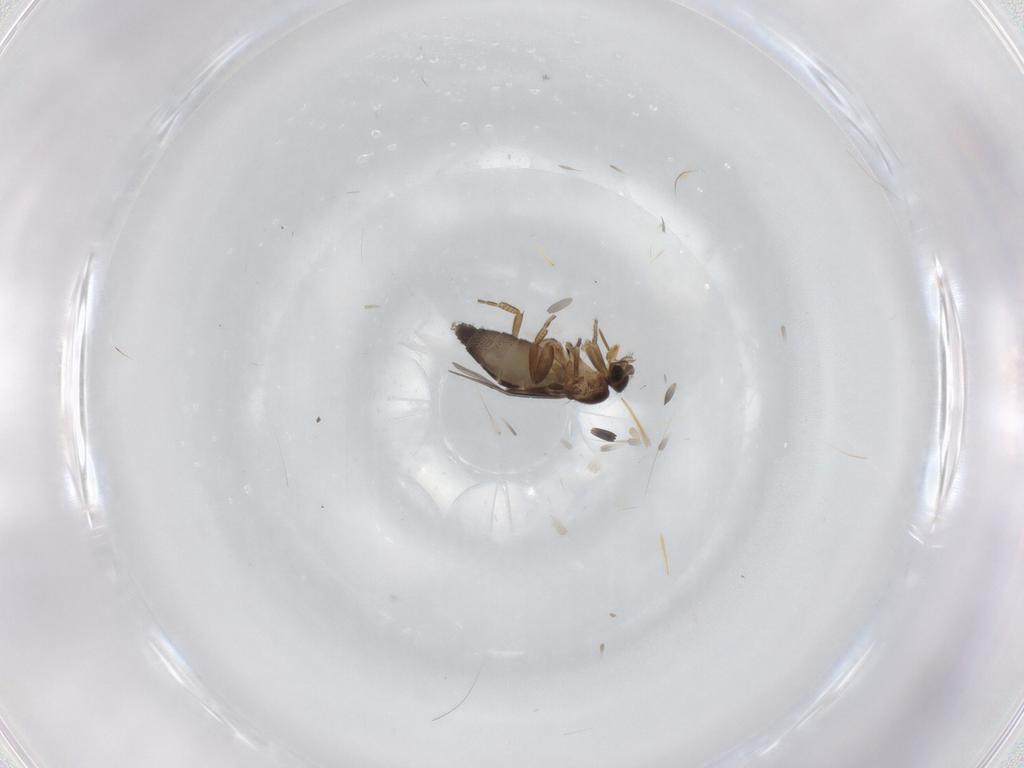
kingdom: Animalia
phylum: Arthropoda
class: Insecta
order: Diptera
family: Phoridae
